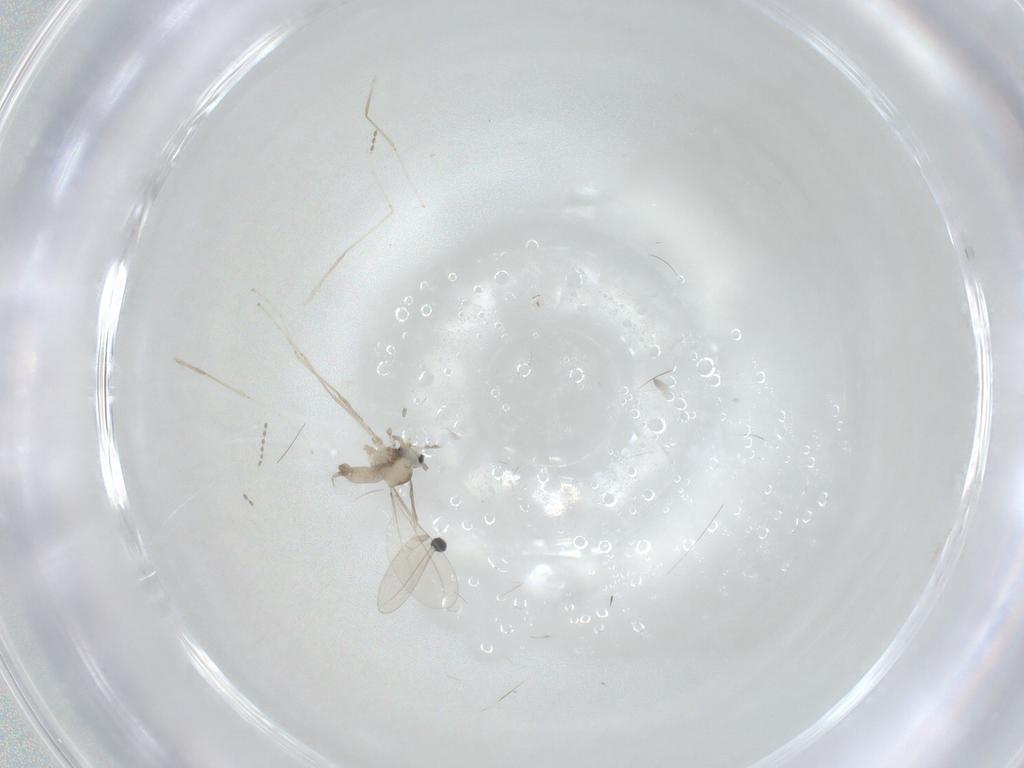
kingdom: Animalia
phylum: Arthropoda
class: Insecta
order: Diptera
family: Cecidomyiidae
